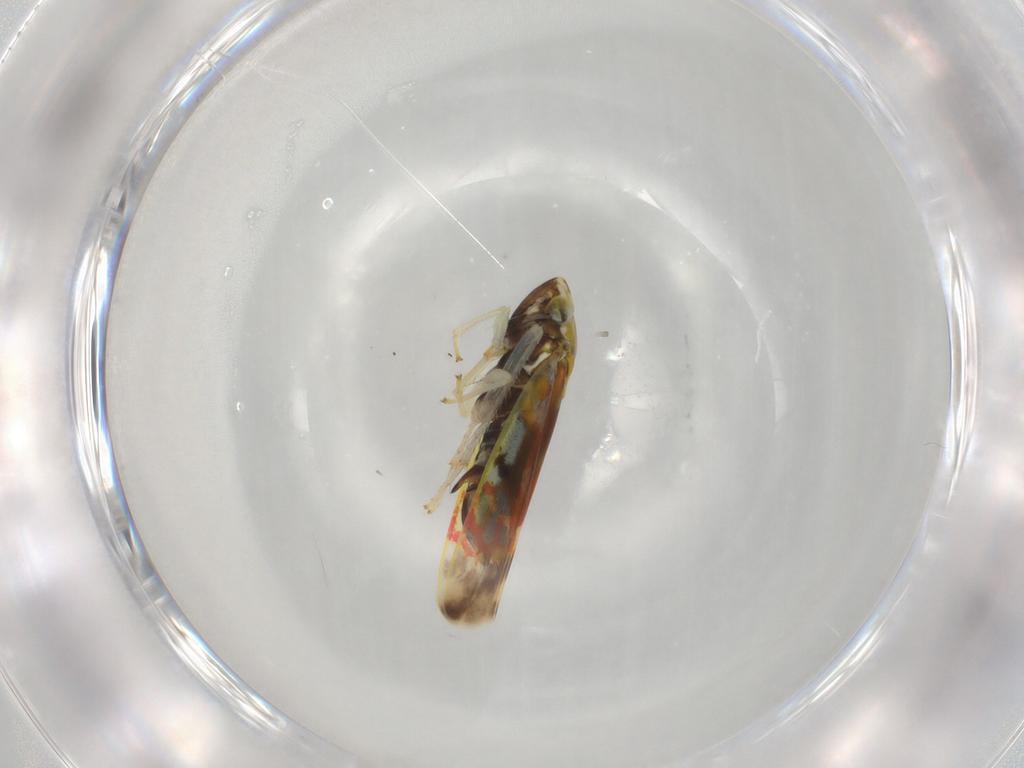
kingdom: Animalia
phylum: Arthropoda
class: Insecta
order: Hemiptera
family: Cicadellidae
